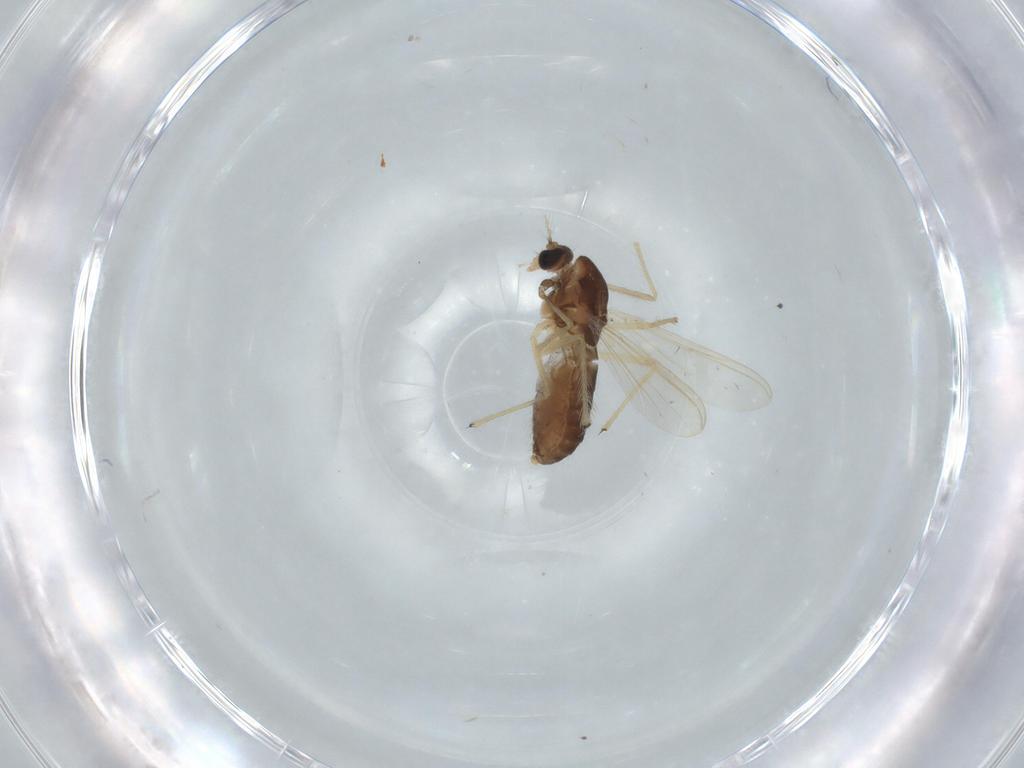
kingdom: Animalia
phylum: Arthropoda
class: Insecta
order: Diptera
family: Chironomidae
